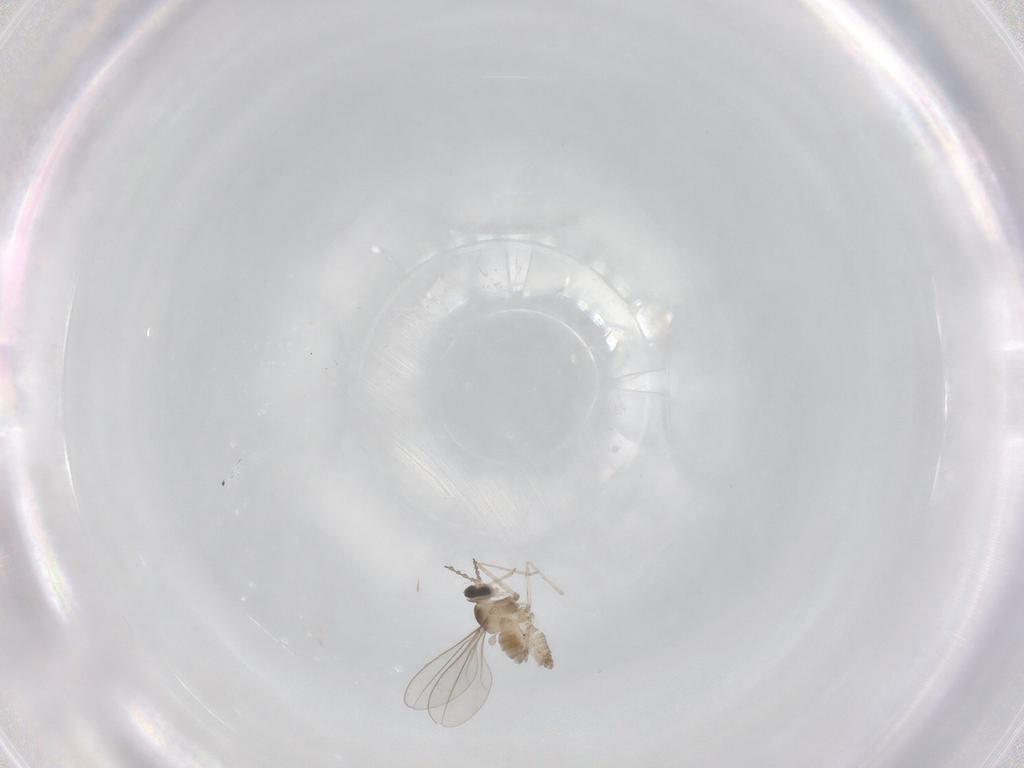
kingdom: Animalia
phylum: Arthropoda
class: Insecta
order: Diptera
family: Cecidomyiidae
